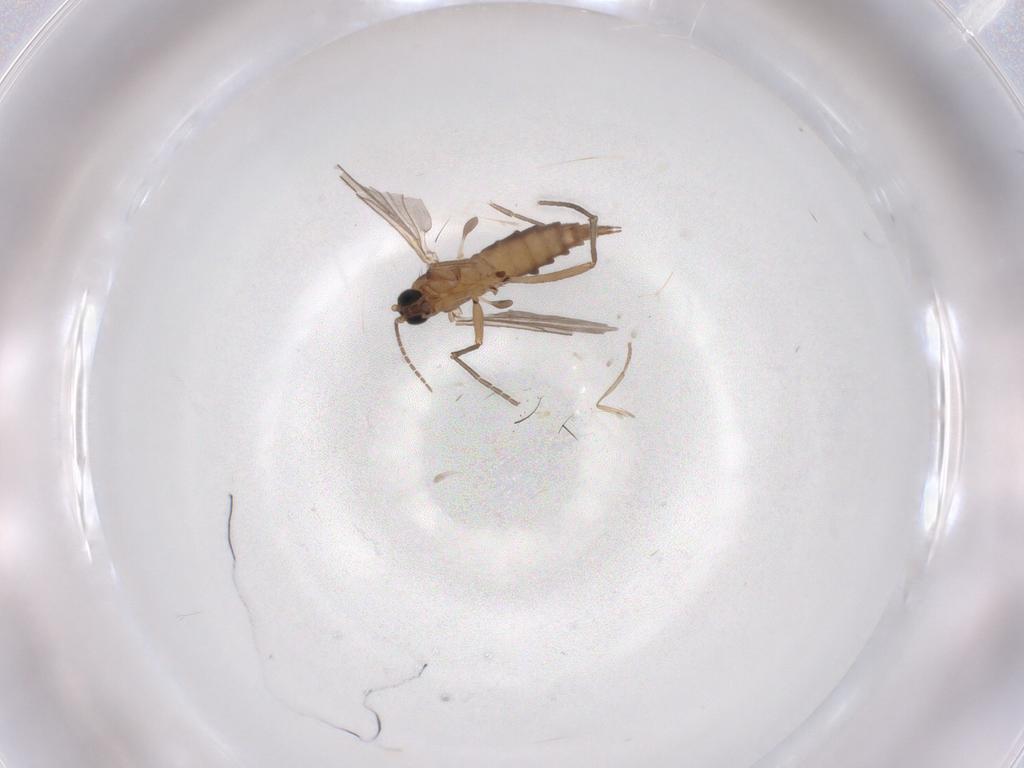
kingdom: Animalia
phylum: Arthropoda
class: Insecta
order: Diptera
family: Sciaridae
